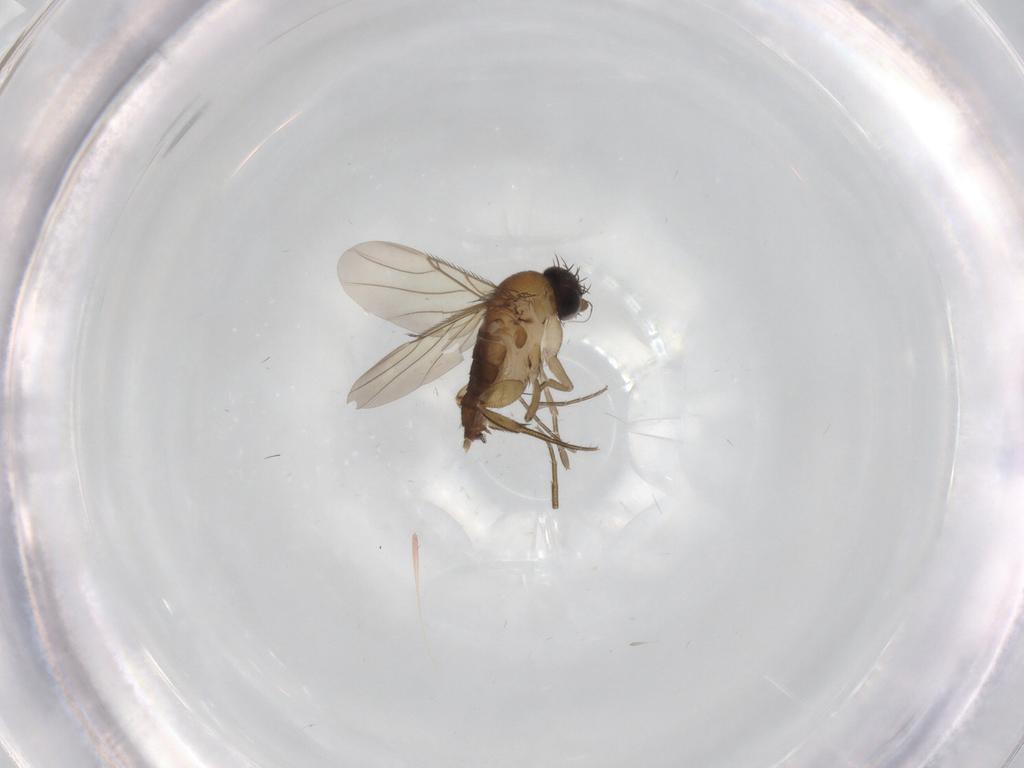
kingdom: Animalia
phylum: Arthropoda
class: Insecta
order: Diptera
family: Phoridae
